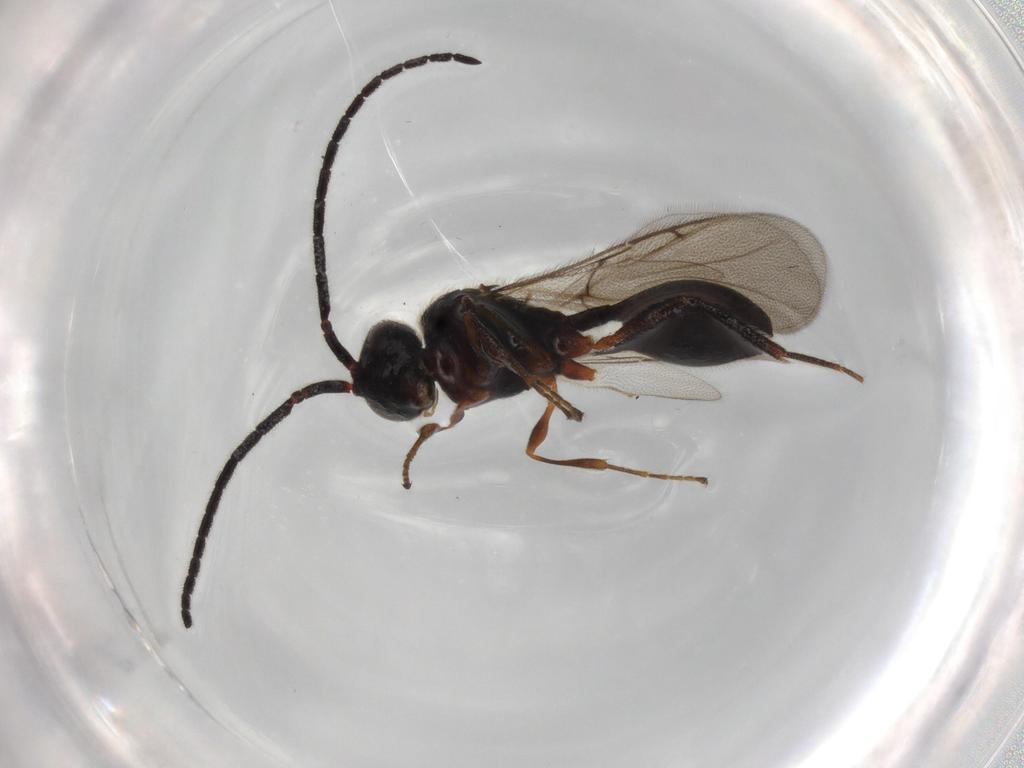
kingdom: Animalia
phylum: Arthropoda
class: Insecta
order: Hymenoptera
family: Diapriidae
